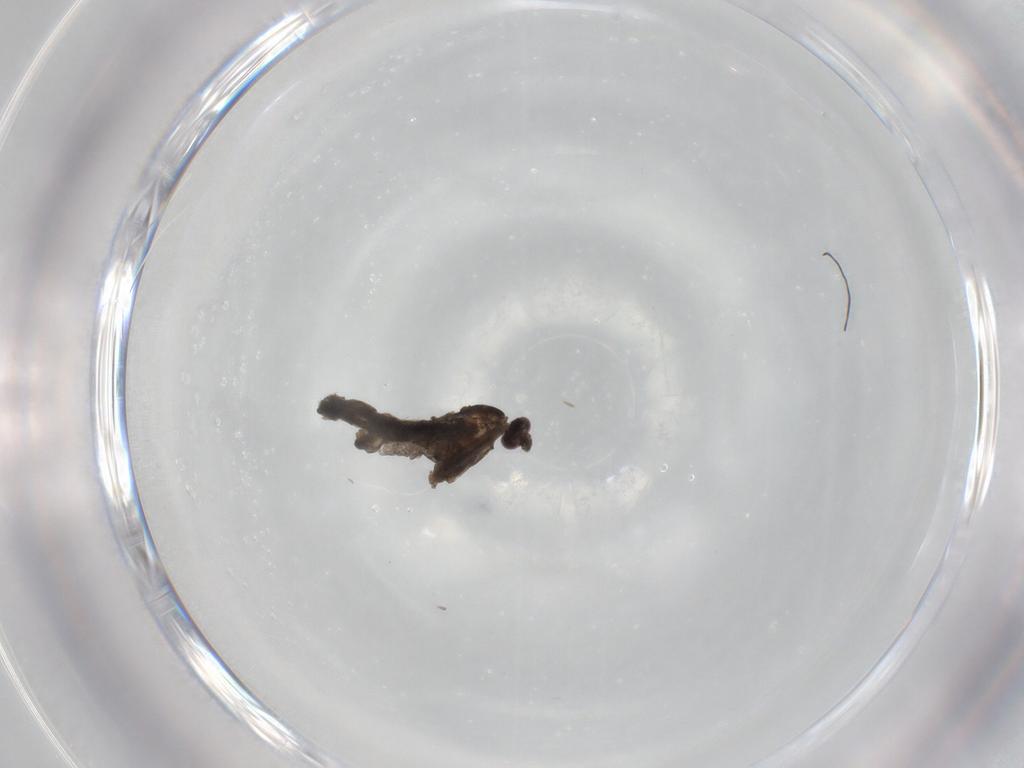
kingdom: Animalia
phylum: Arthropoda
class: Insecta
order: Diptera
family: Chironomidae
